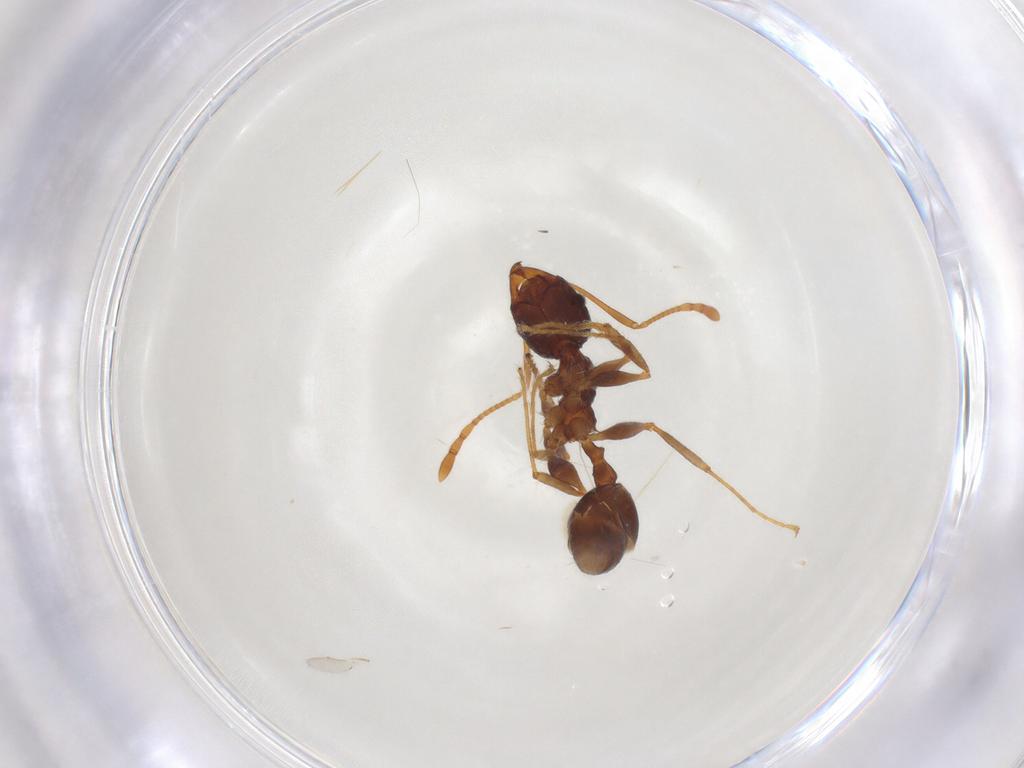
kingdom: Animalia
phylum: Arthropoda
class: Insecta
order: Hymenoptera
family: Formicidae
